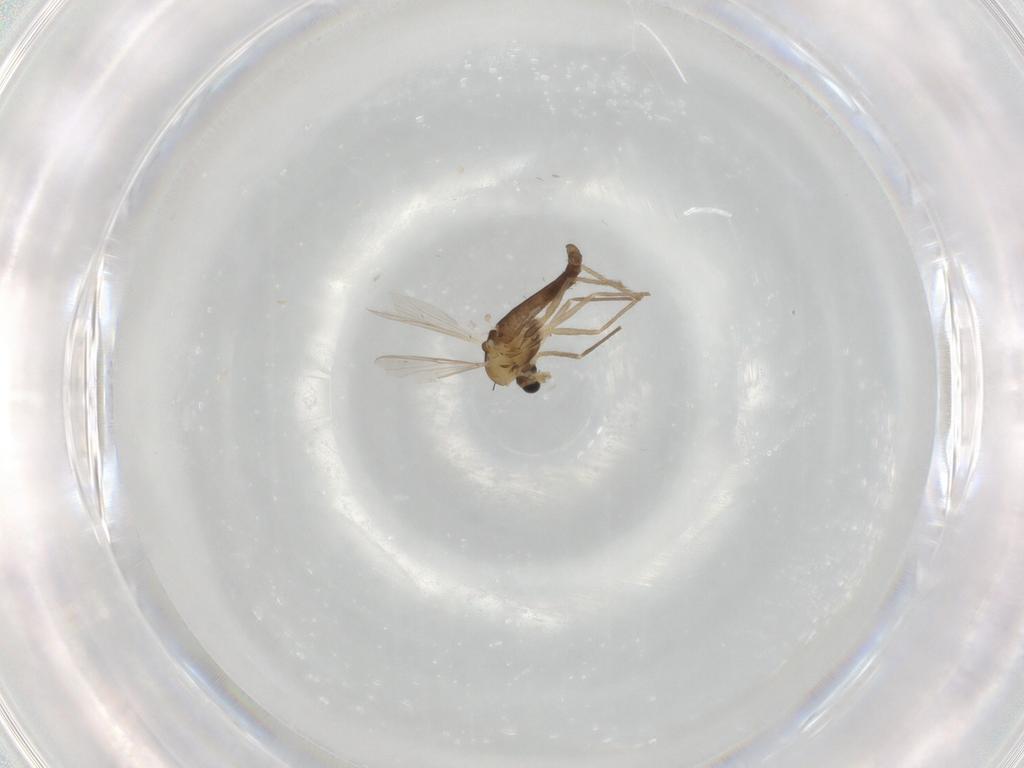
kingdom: Animalia
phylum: Arthropoda
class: Insecta
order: Diptera
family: Chironomidae
